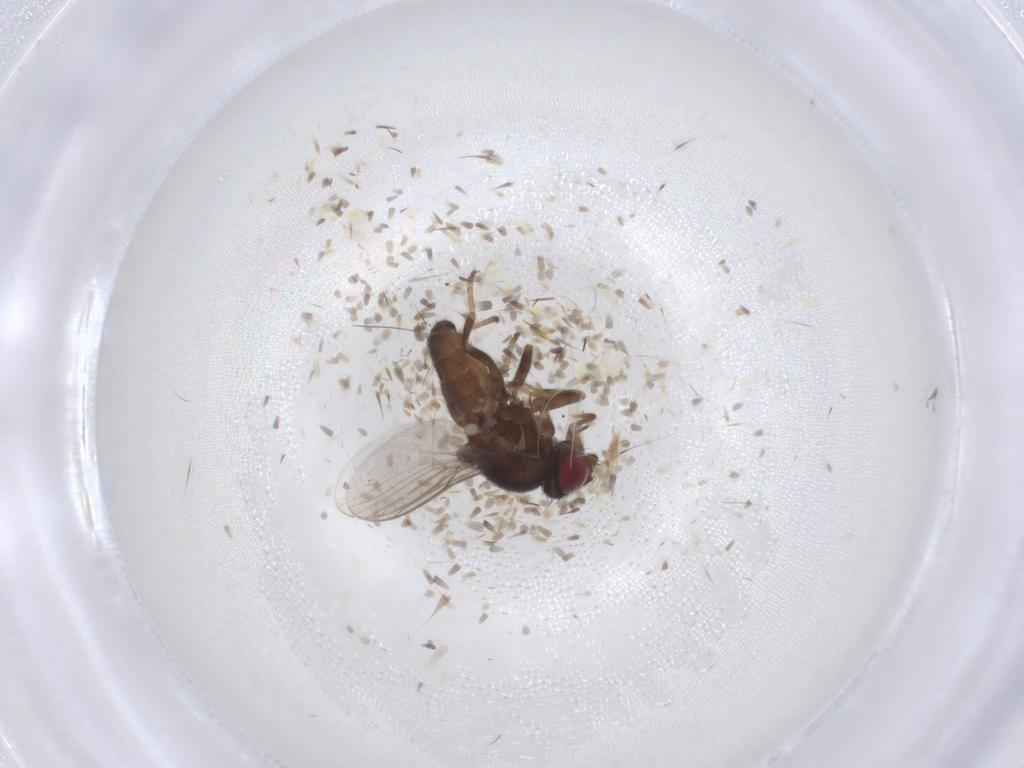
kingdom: Animalia
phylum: Arthropoda
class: Insecta
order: Diptera
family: Chloropidae
